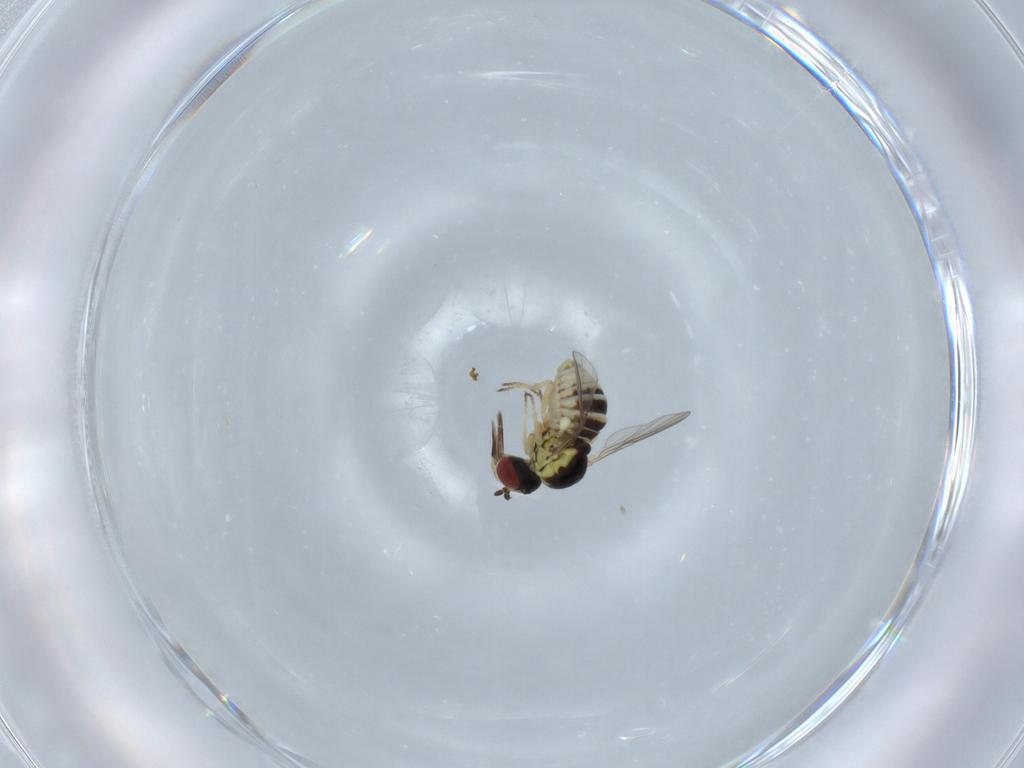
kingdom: Animalia
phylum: Arthropoda
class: Insecta
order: Diptera
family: Bombyliidae
